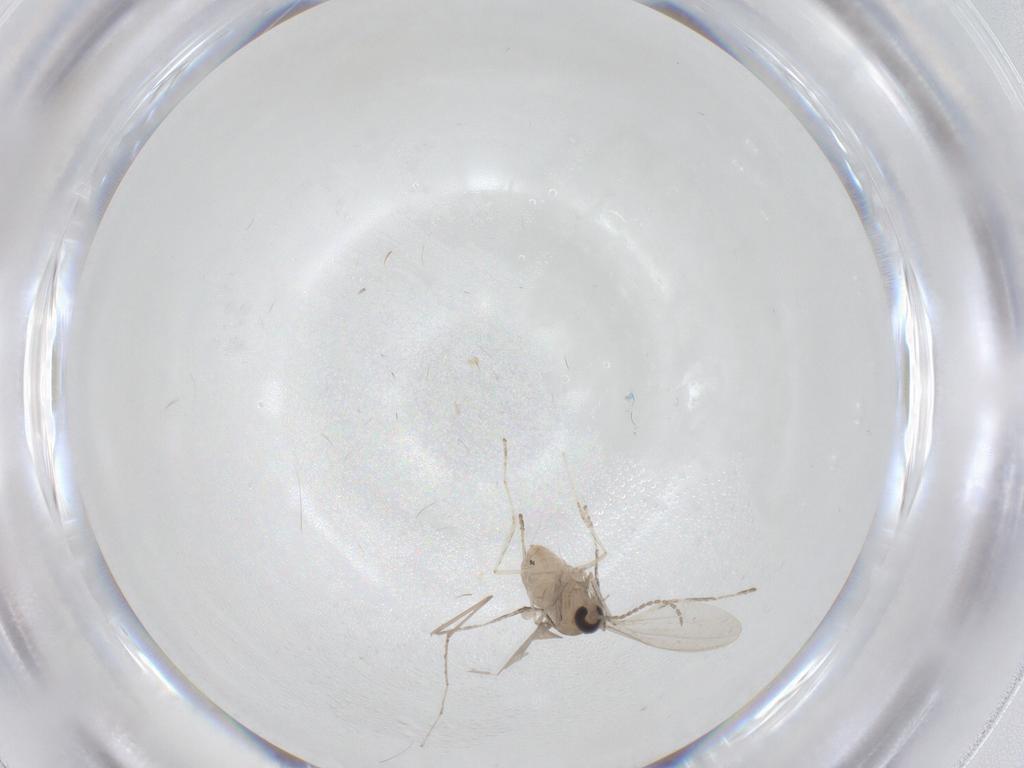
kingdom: Animalia
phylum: Arthropoda
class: Insecta
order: Diptera
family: Cecidomyiidae
